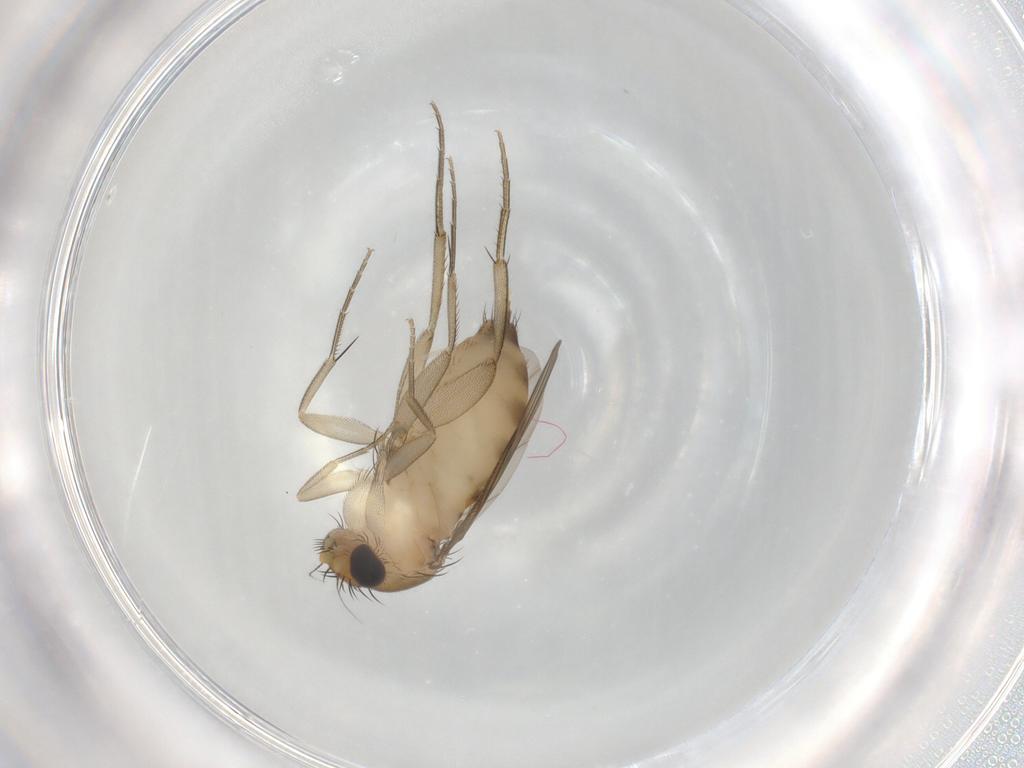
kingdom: Animalia
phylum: Arthropoda
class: Insecta
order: Diptera
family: Phoridae
